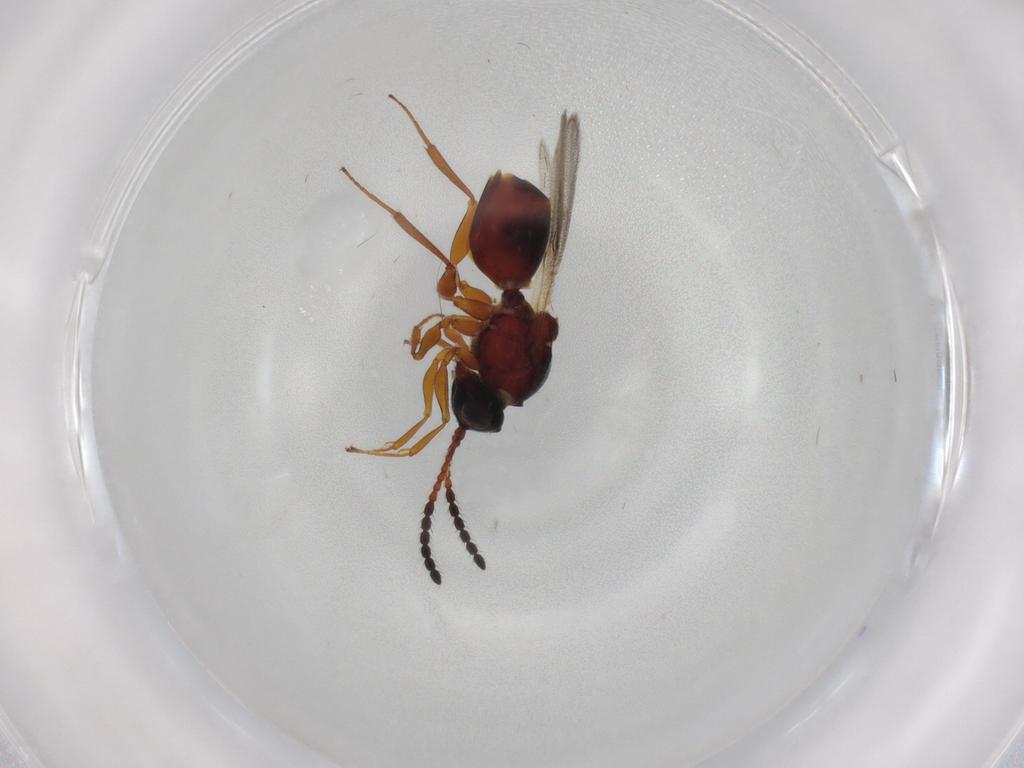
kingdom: Animalia
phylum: Arthropoda
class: Insecta
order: Hymenoptera
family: Figitidae
